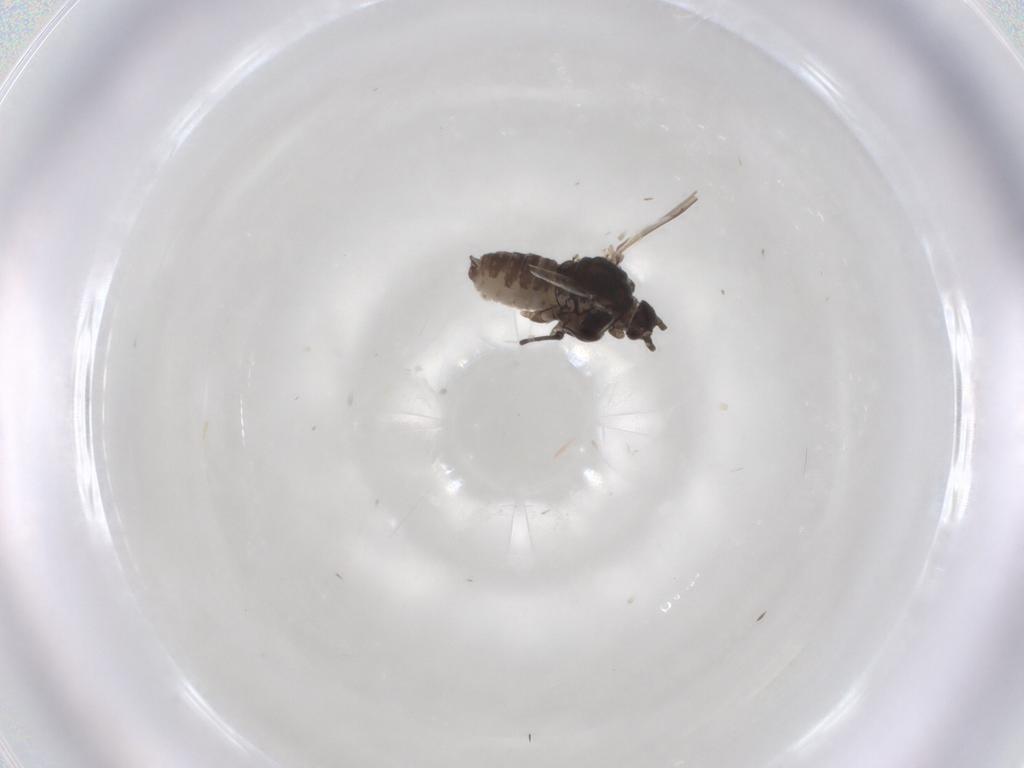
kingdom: Animalia
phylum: Arthropoda
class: Insecta
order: Hemiptera
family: Aphididae
